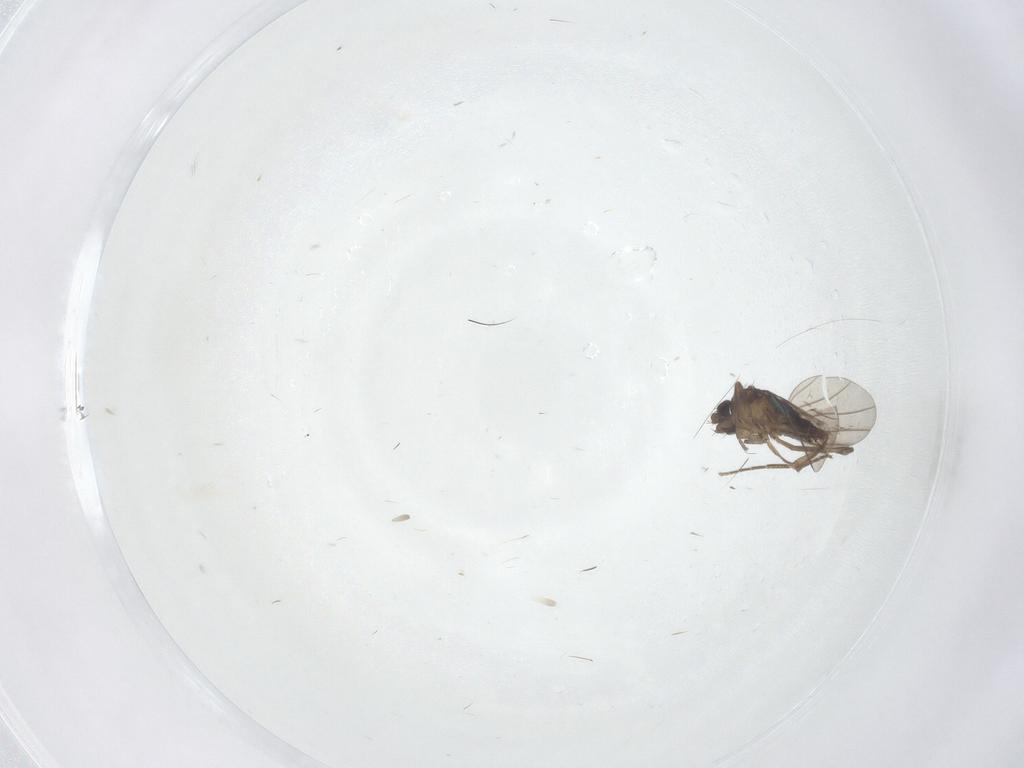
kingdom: Animalia
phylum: Arthropoda
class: Insecta
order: Diptera
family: Phoridae
